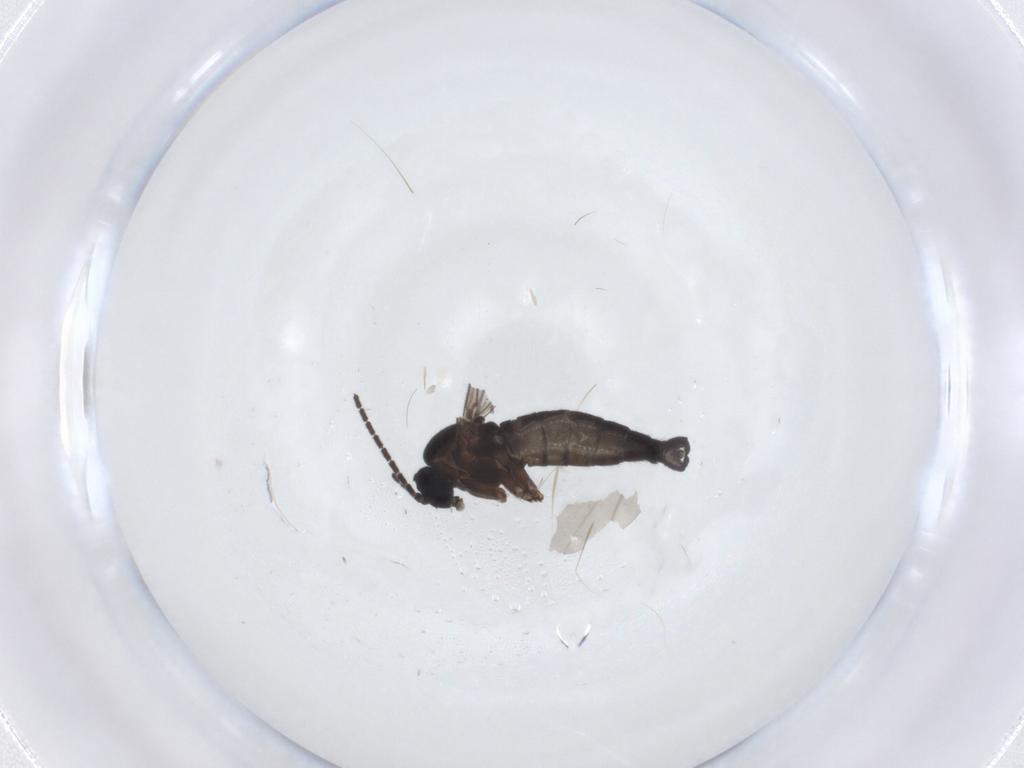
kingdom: Animalia
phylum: Arthropoda
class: Insecta
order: Diptera
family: Sciaridae
